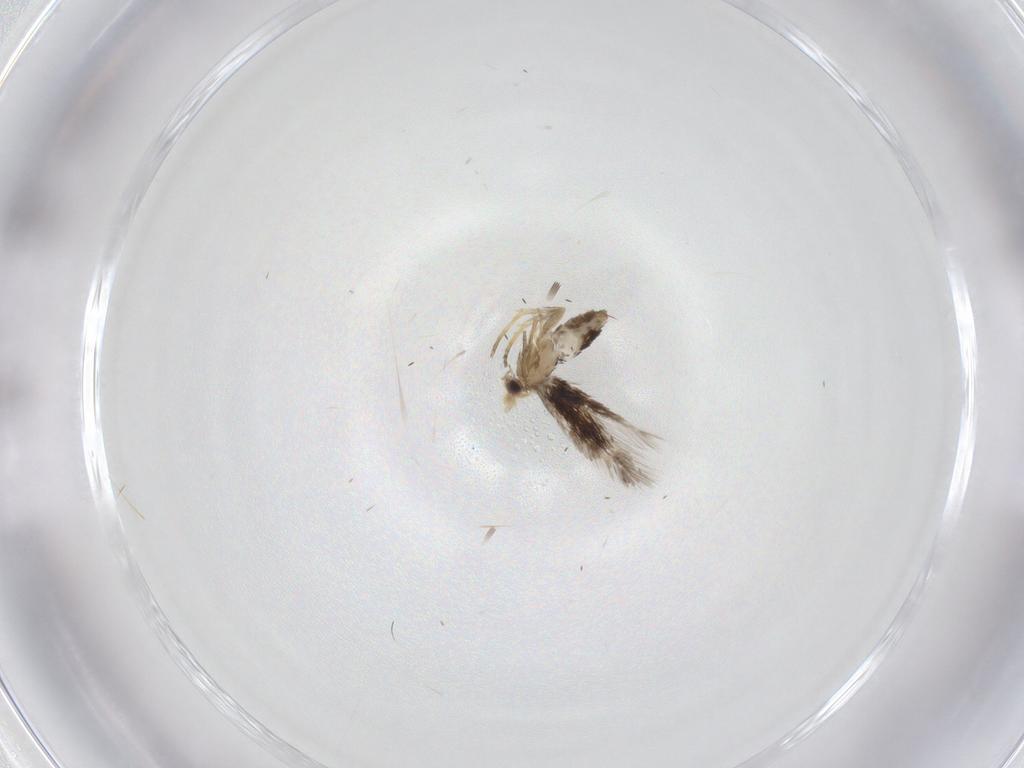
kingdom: Animalia
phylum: Arthropoda
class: Insecta
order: Lepidoptera
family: Nepticulidae
